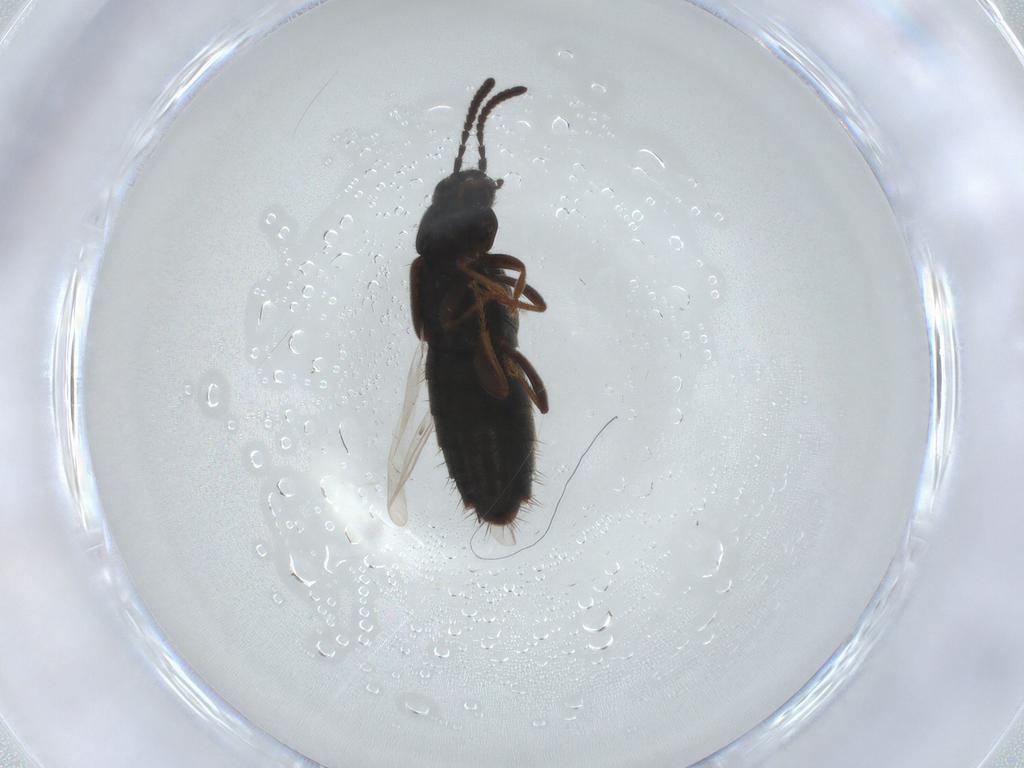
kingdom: Animalia
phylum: Arthropoda
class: Insecta
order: Coleoptera
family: Staphylinidae
